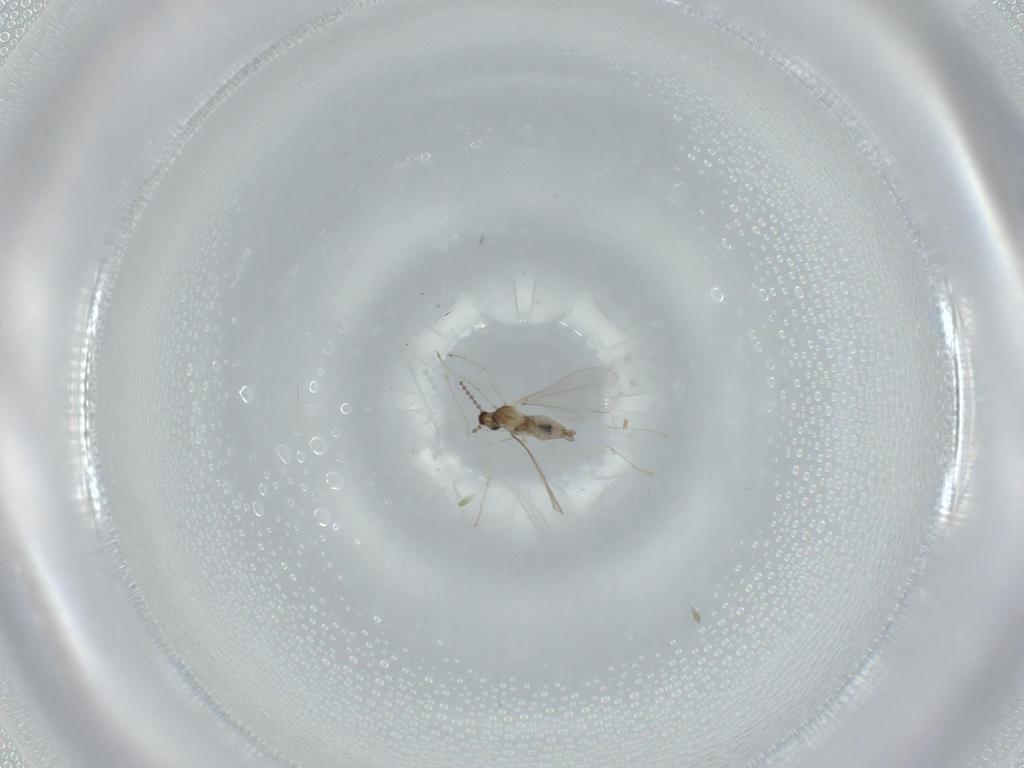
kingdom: Animalia
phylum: Arthropoda
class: Insecta
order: Diptera
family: Cecidomyiidae
